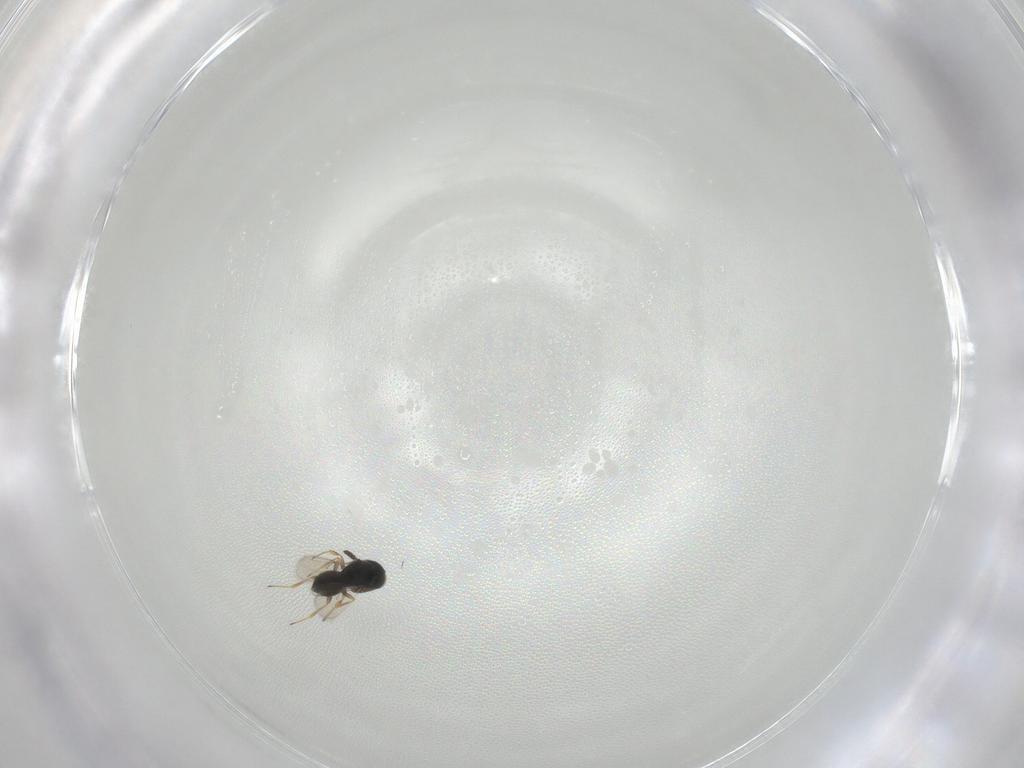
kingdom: Animalia
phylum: Arthropoda
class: Insecta
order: Hymenoptera
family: Scelionidae
